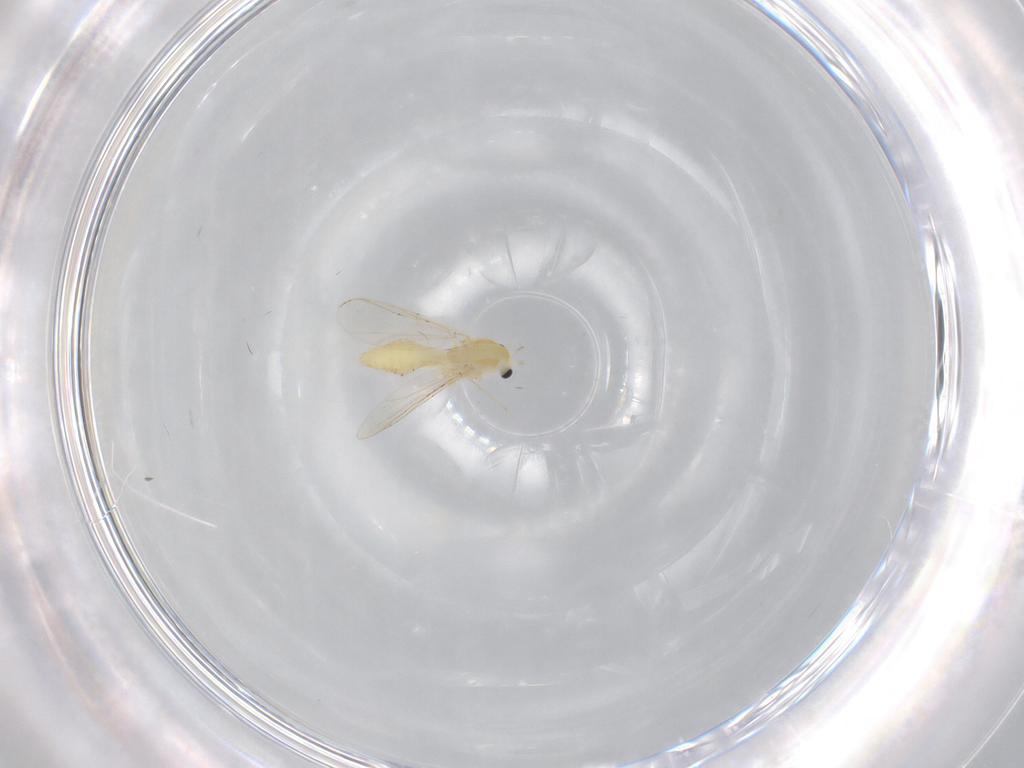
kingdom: Animalia
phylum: Arthropoda
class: Insecta
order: Diptera
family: Chironomidae
